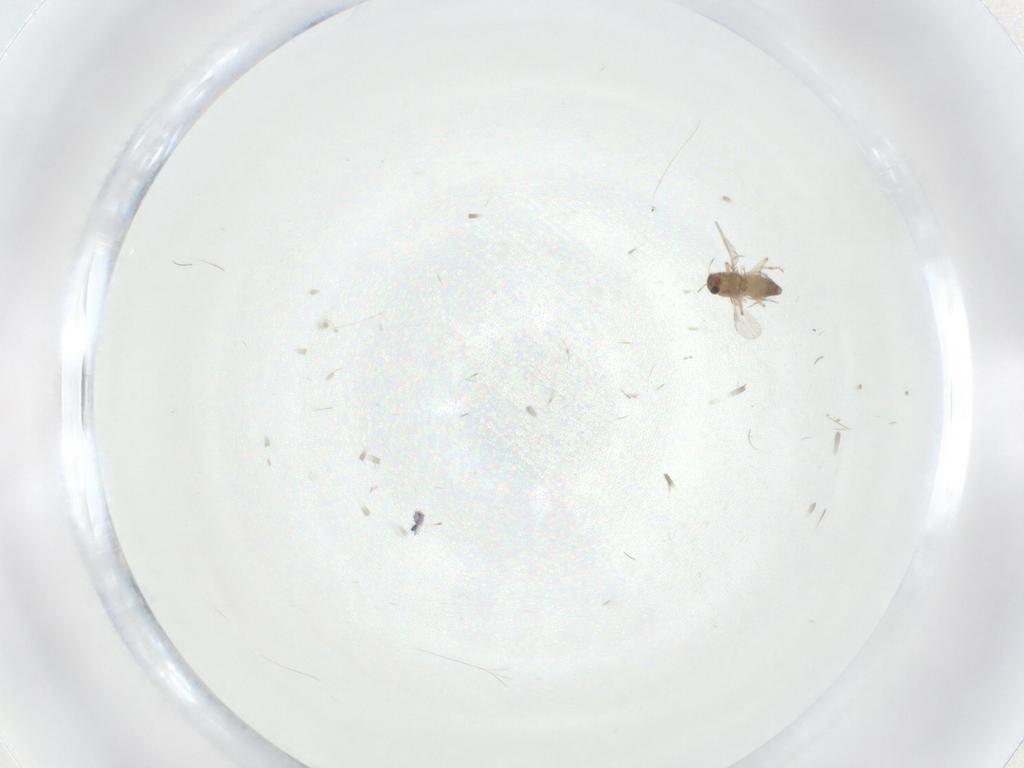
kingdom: Animalia
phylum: Arthropoda
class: Insecta
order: Diptera
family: Chironomidae
